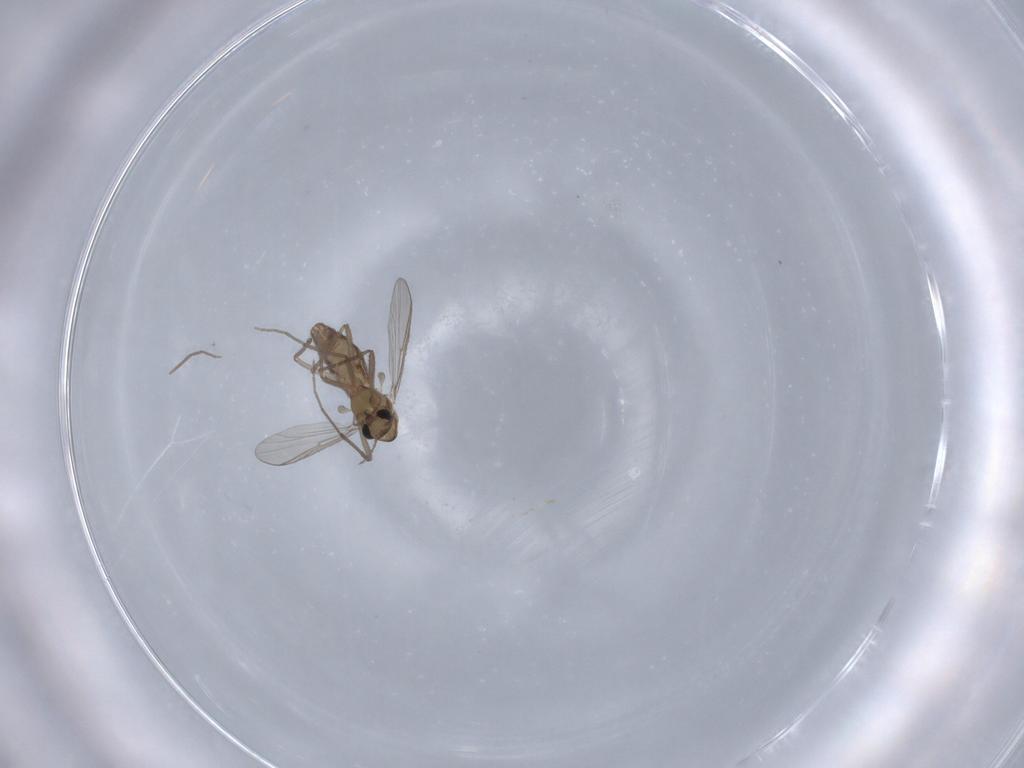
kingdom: Animalia
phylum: Arthropoda
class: Insecta
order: Diptera
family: Chironomidae
